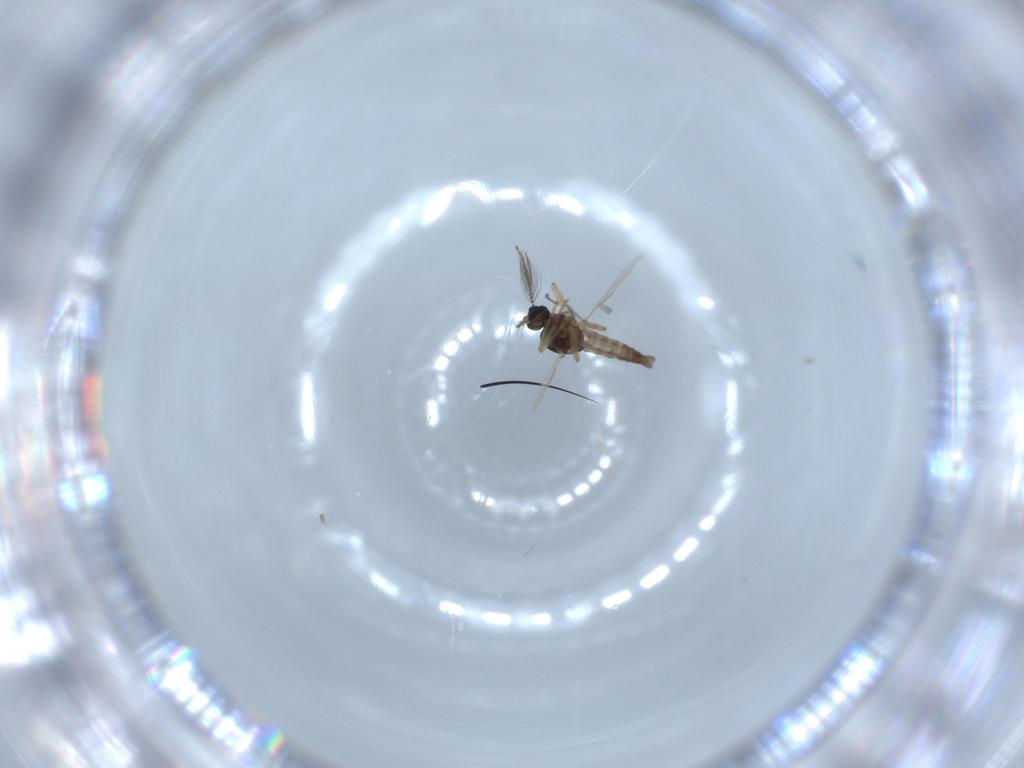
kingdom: Animalia
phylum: Arthropoda
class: Insecta
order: Diptera
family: Ceratopogonidae
